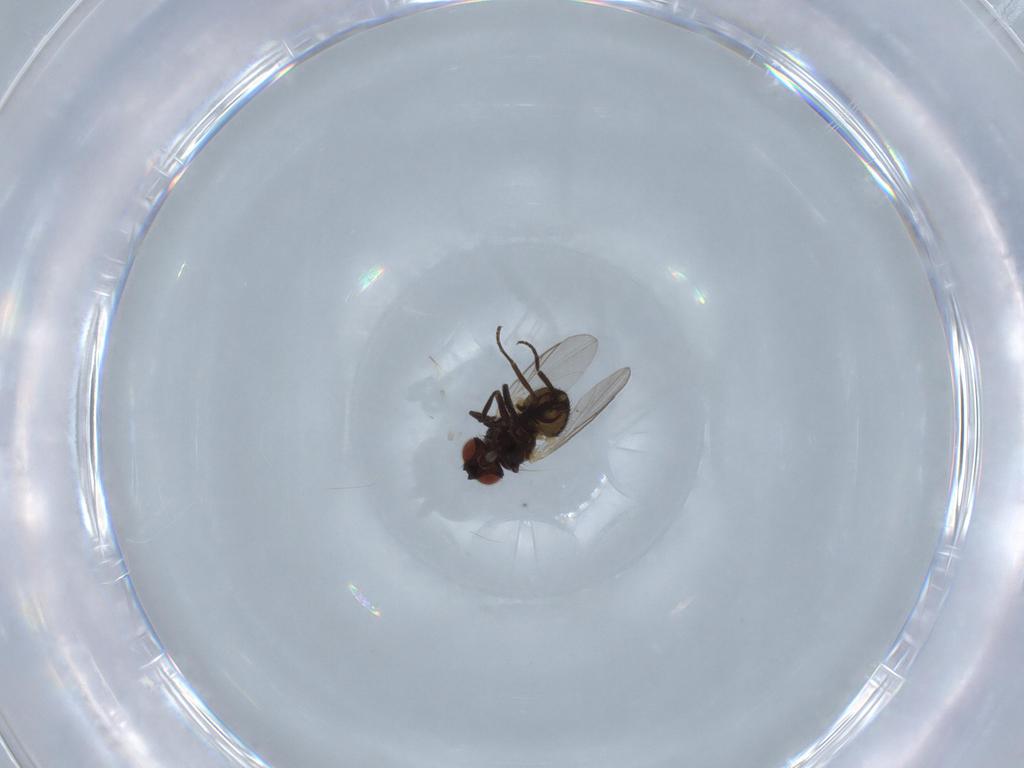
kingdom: Animalia
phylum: Arthropoda
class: Insecta
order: Diptera
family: Sphaeroceridae
